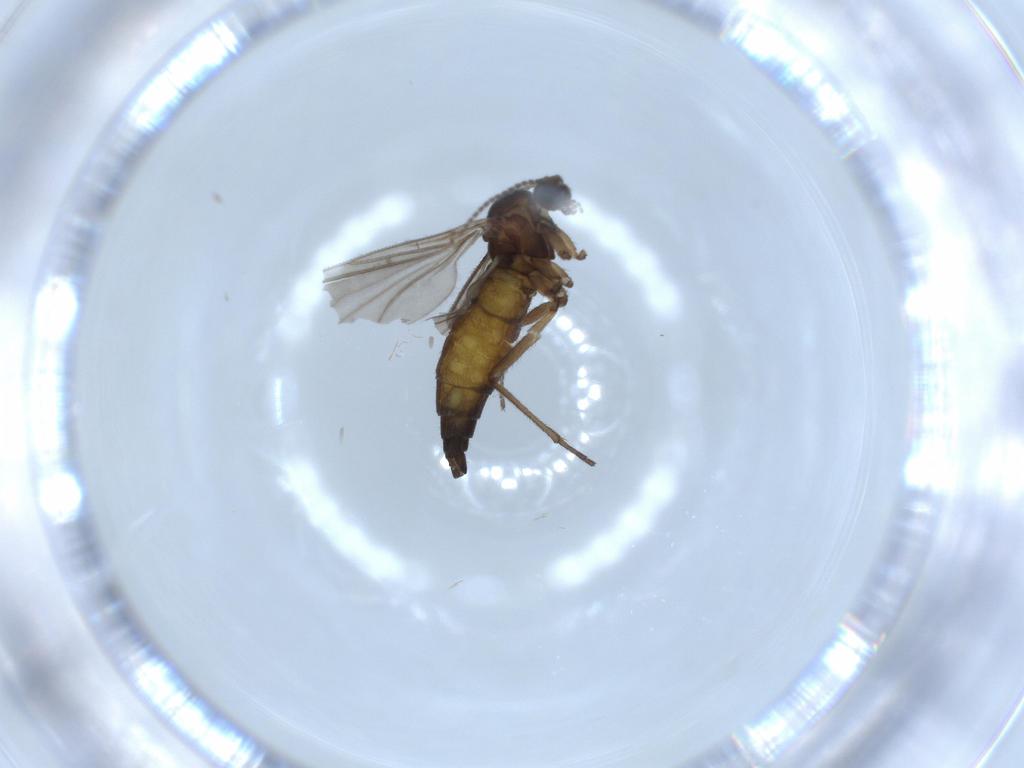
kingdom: Animalia
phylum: Arthropoda
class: Insecta
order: Diptera
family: Sciaridae
